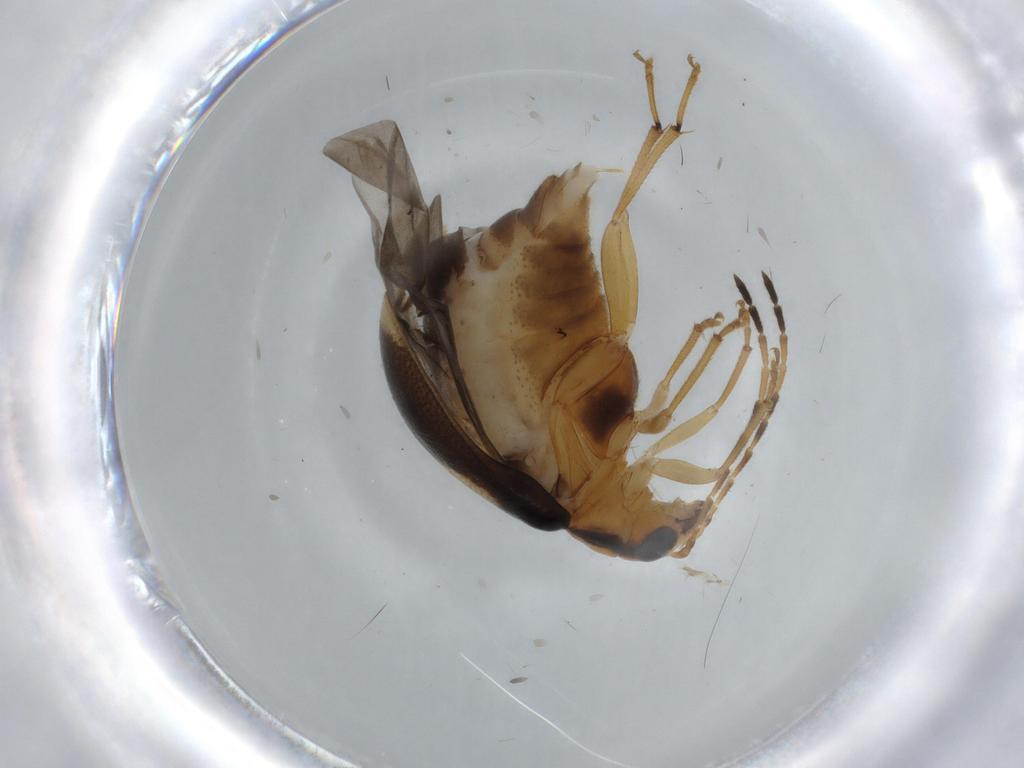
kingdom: Animalia
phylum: Arthropoda
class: Insecta
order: Coleoptera
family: Chrysomelidae
